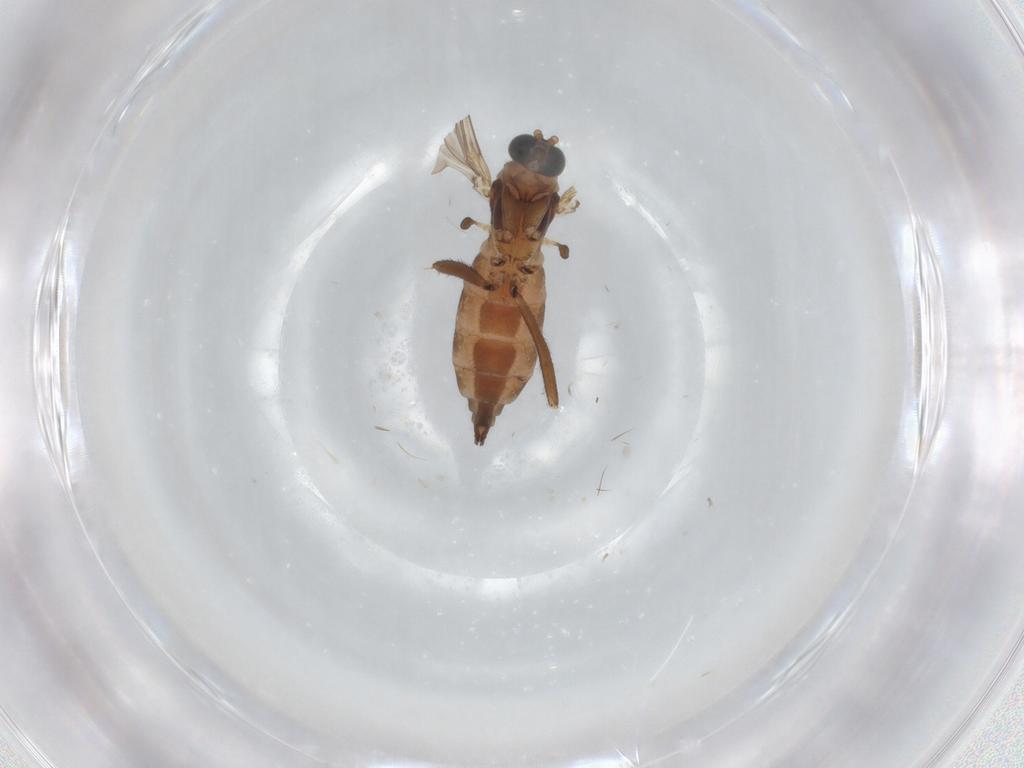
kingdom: Animalia
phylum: Arthropoda
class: Insecta
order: Diptera
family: Sciaridae
